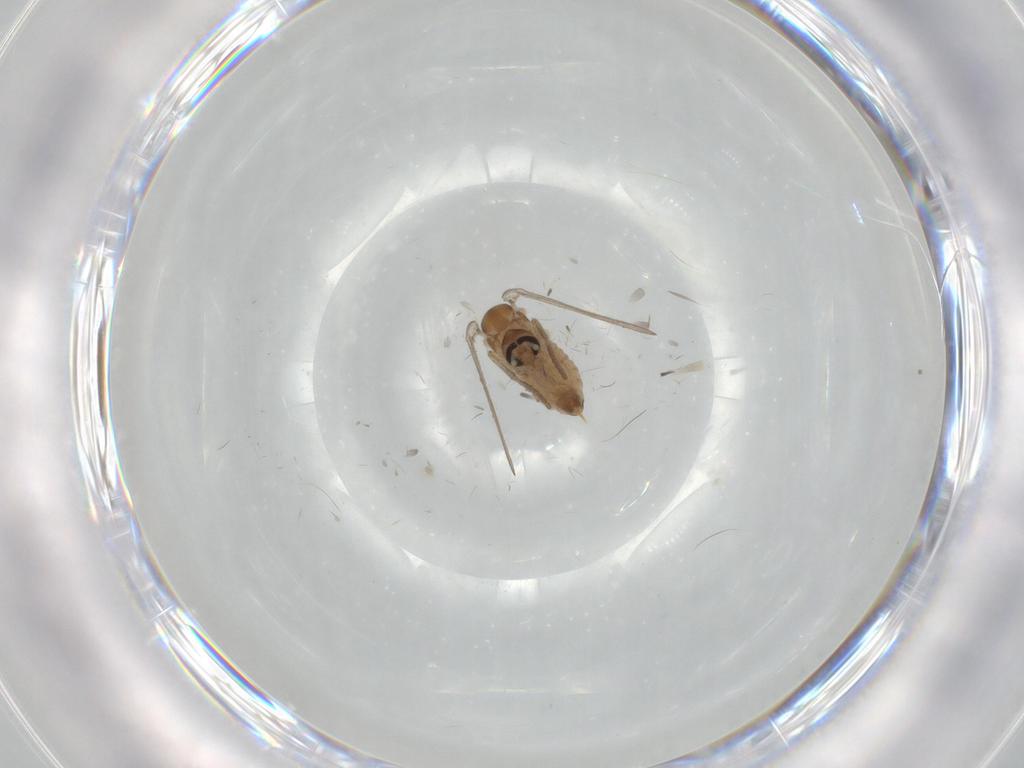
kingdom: Animalia
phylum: Arthropoda
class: Insecta
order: Diptera
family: Psychodidae
